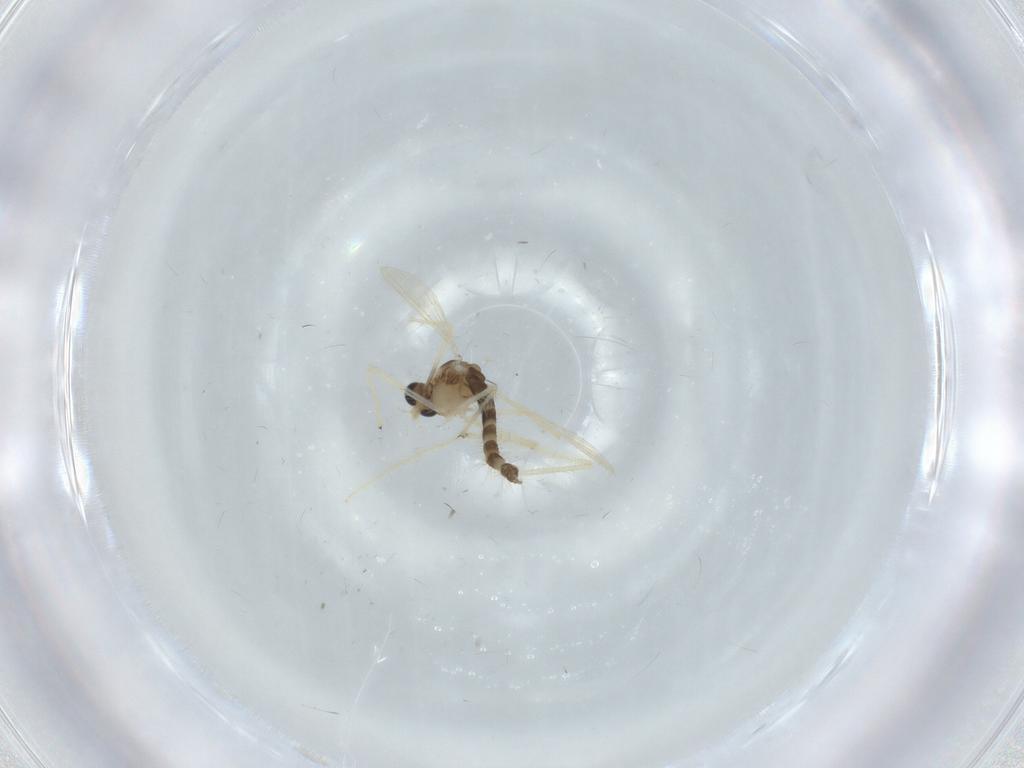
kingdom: Animalia
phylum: Arthropoda
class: Insecta
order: Diptera
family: Chironomidae
